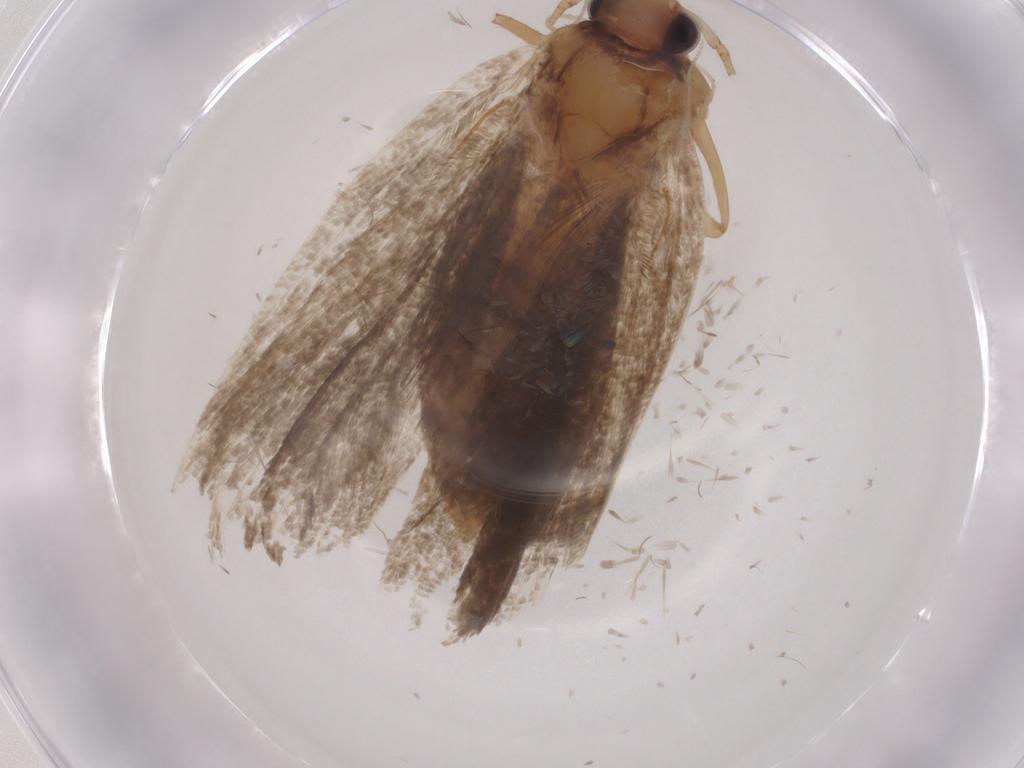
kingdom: Animalia
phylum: Arthropoda
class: Insecta
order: Lepidoptera
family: Autostichidae
